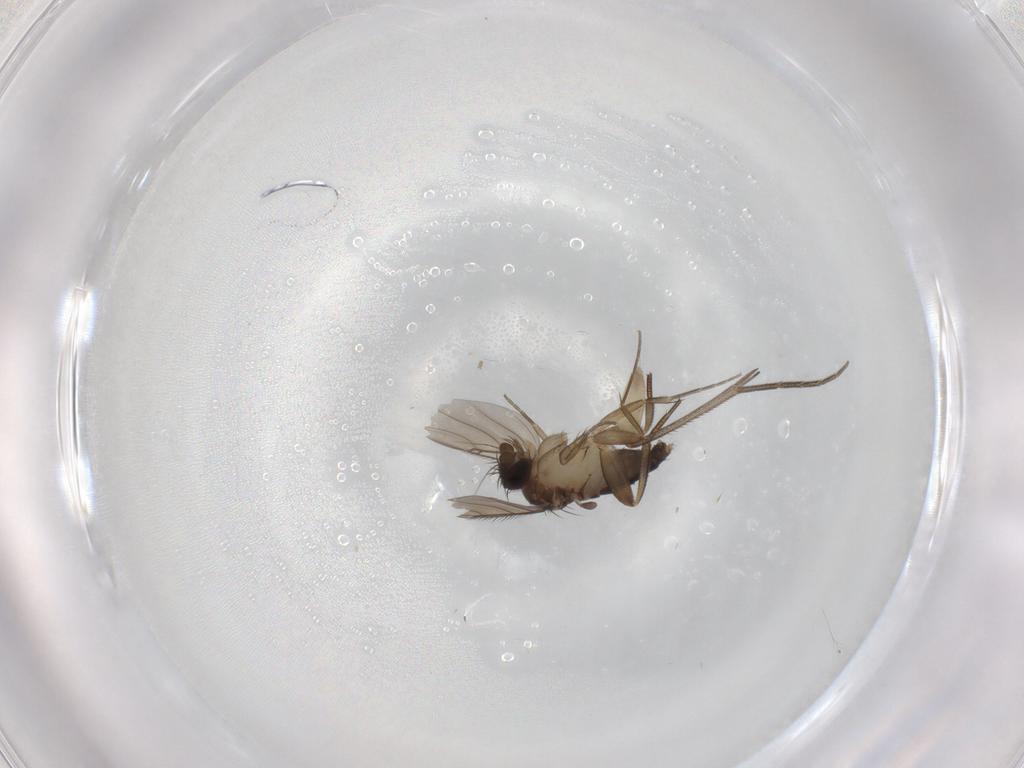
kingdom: Animalia
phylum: Arthropoda
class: Insecta
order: Diptera
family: Phoridae
